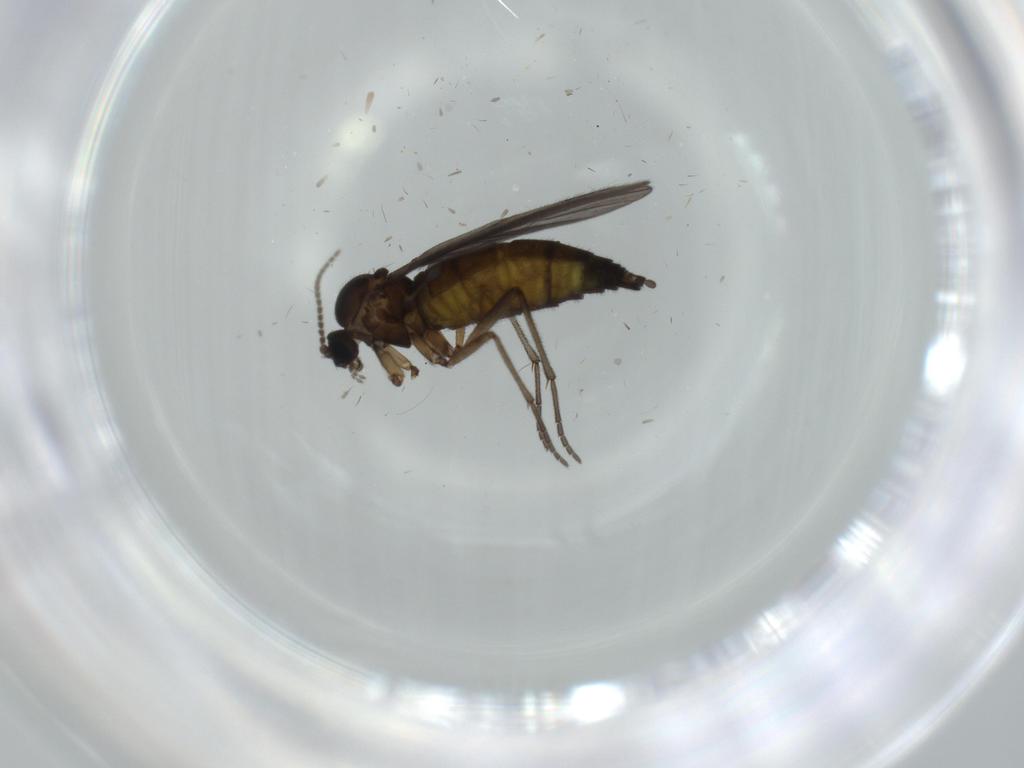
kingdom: Animalia
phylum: Arthropoda
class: Insecta
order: Diptera
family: Sciaridae
